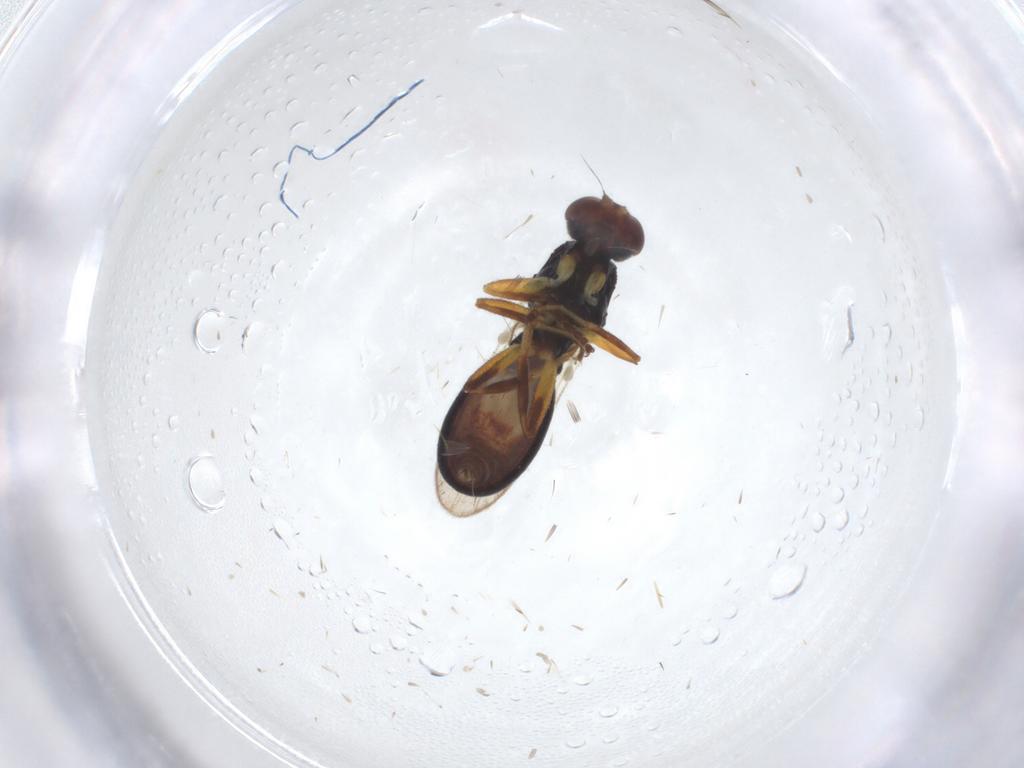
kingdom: Animalia
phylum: Arthropoda
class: Insecta
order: Diptera
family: Chloropidae
